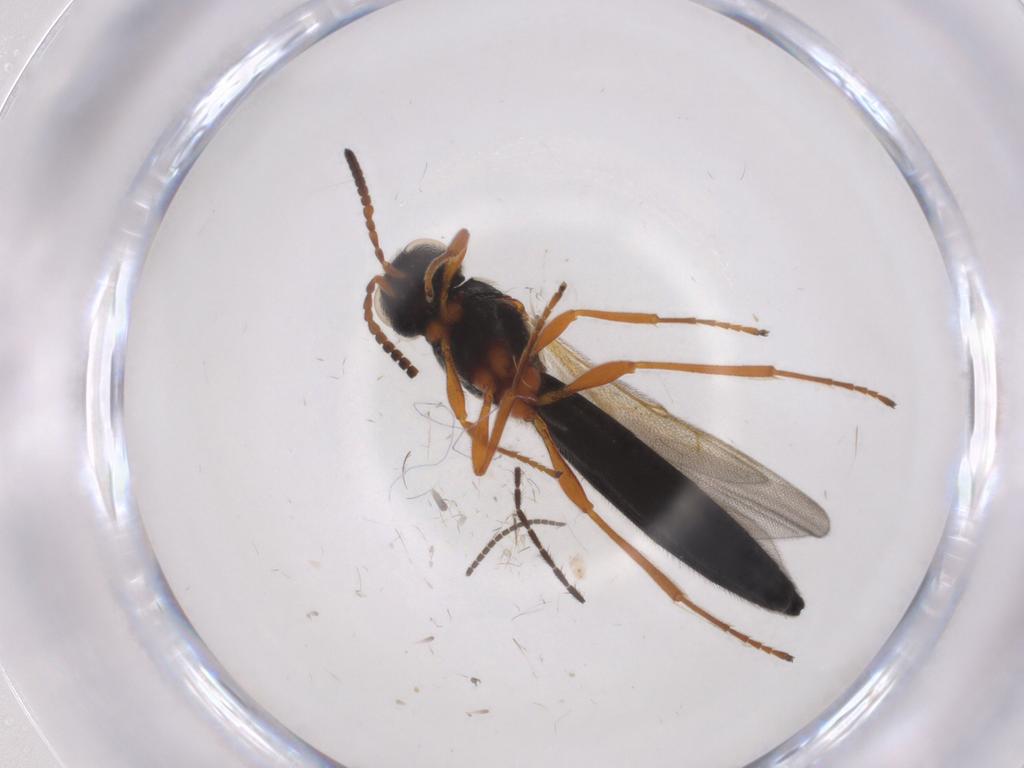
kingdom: Animalia
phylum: Arthropoda
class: Insecta
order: Hymenoptera
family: Scelionidae
